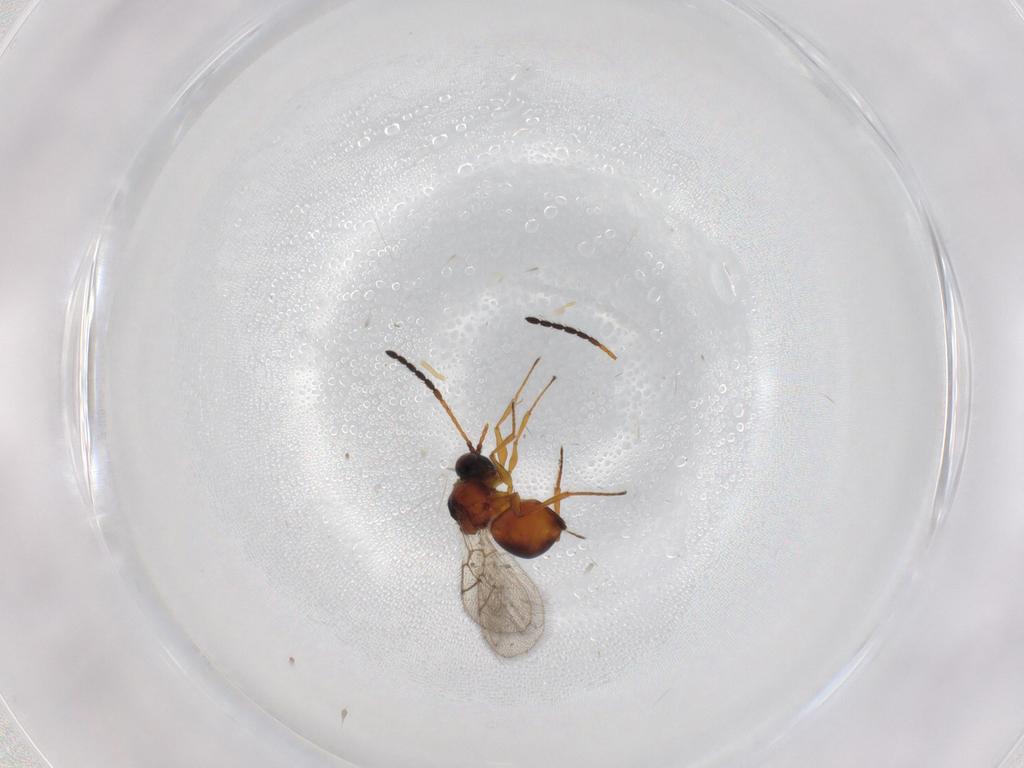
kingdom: Animalia
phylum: Arthropoda
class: Insecta
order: Hymenoptera
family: Figitidae
